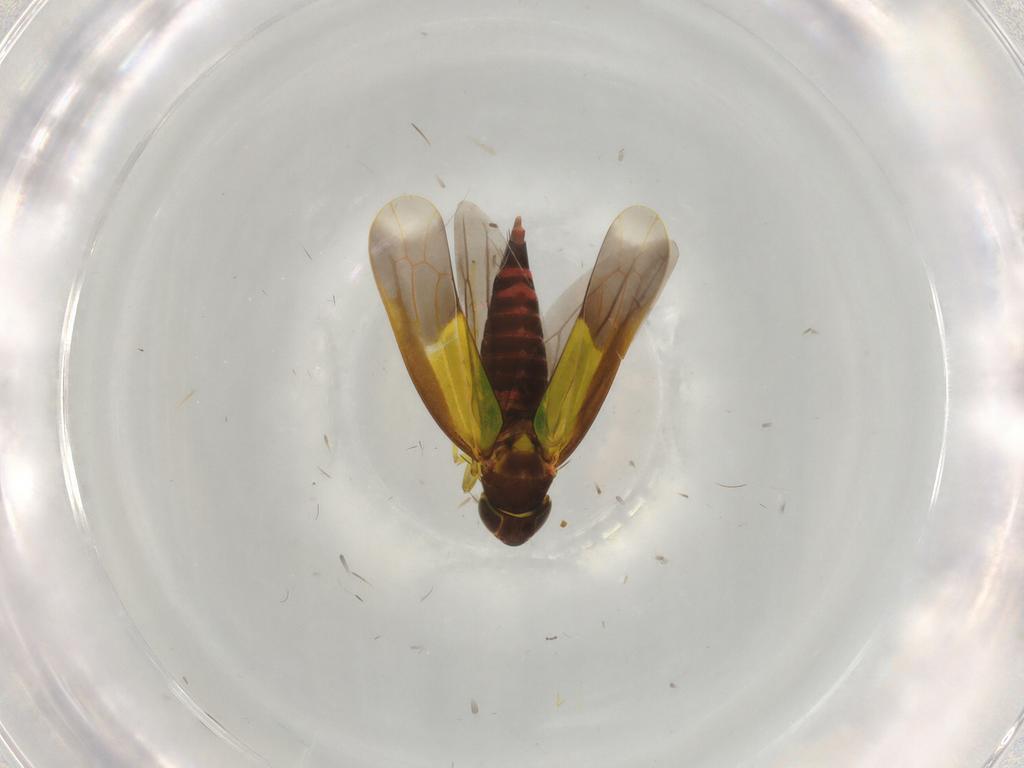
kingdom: Animalia
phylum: Arthropoda
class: Insecta
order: Hemiptera
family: Cicadellidae
